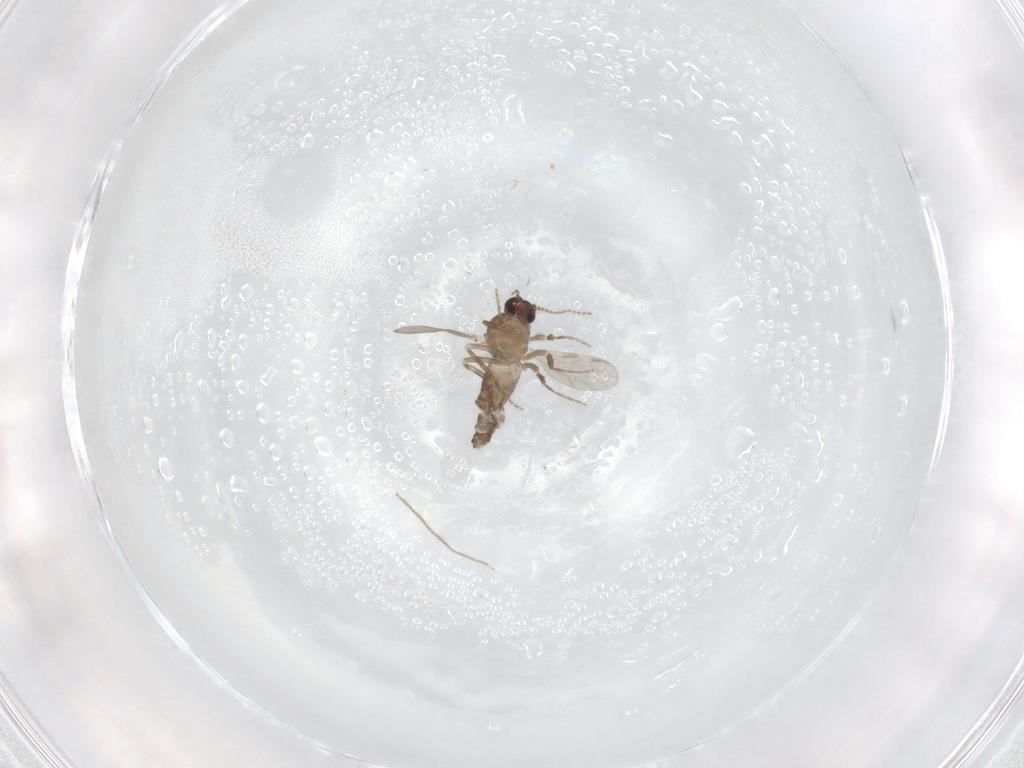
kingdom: Animalia
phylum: Arthropoda
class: Insecta
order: Diptera
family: Ceratopogonidae
